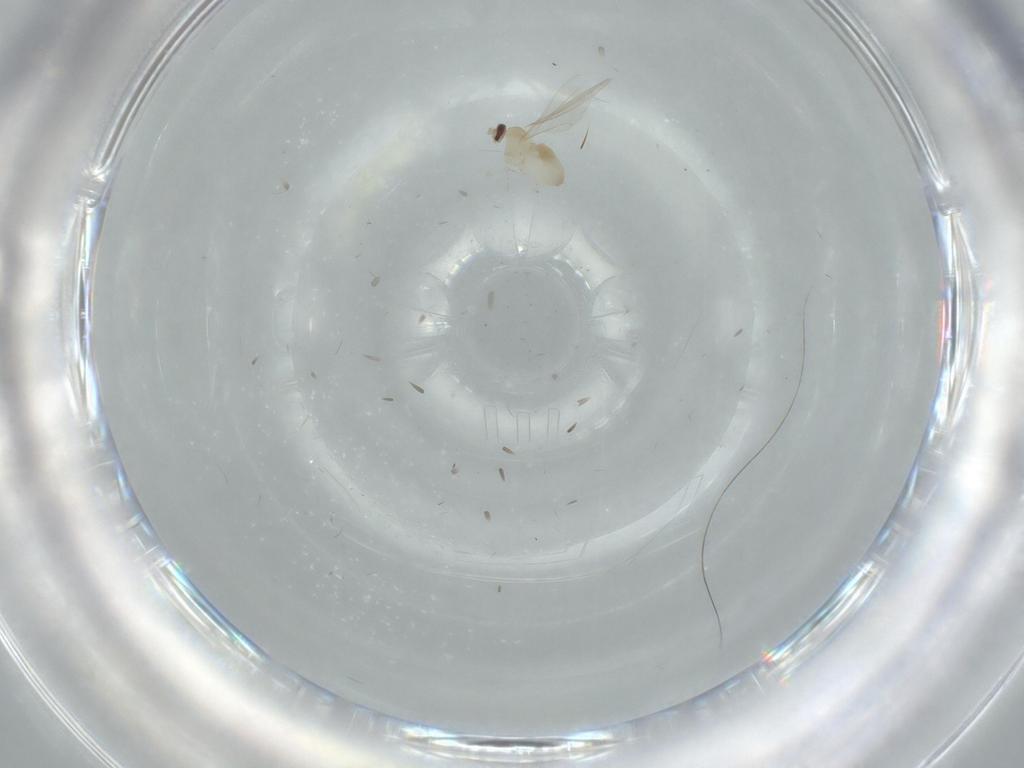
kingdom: Animalia
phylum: Arthropoda
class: Insecta
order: Diptera
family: Cecidomyiidae
